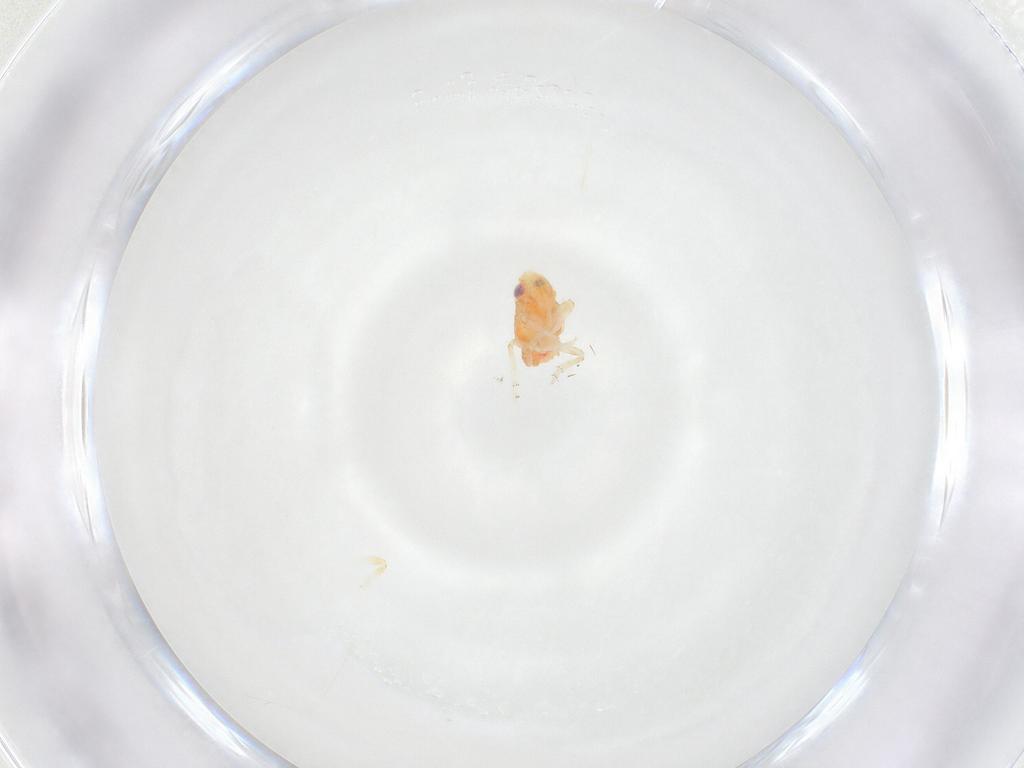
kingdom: Animalia
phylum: Arthropoda
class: Insecta
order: Hemiptera
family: Issidae
